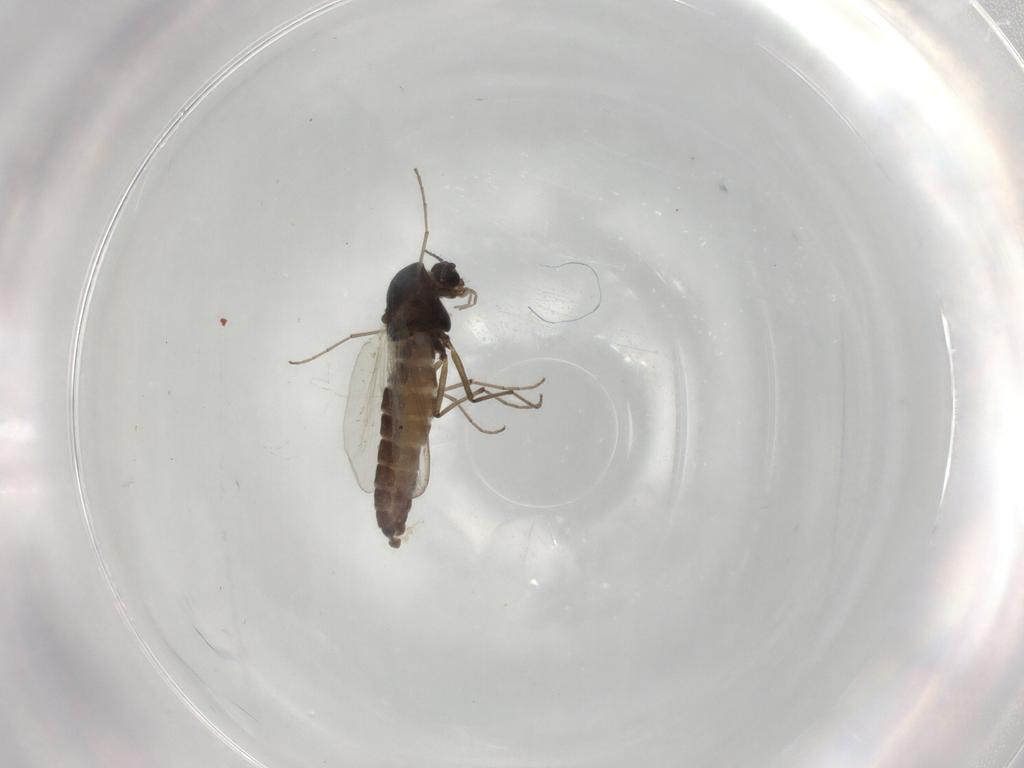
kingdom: Animalia
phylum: Arthropoda
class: Insecta
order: Diptera
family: Chironomidae
